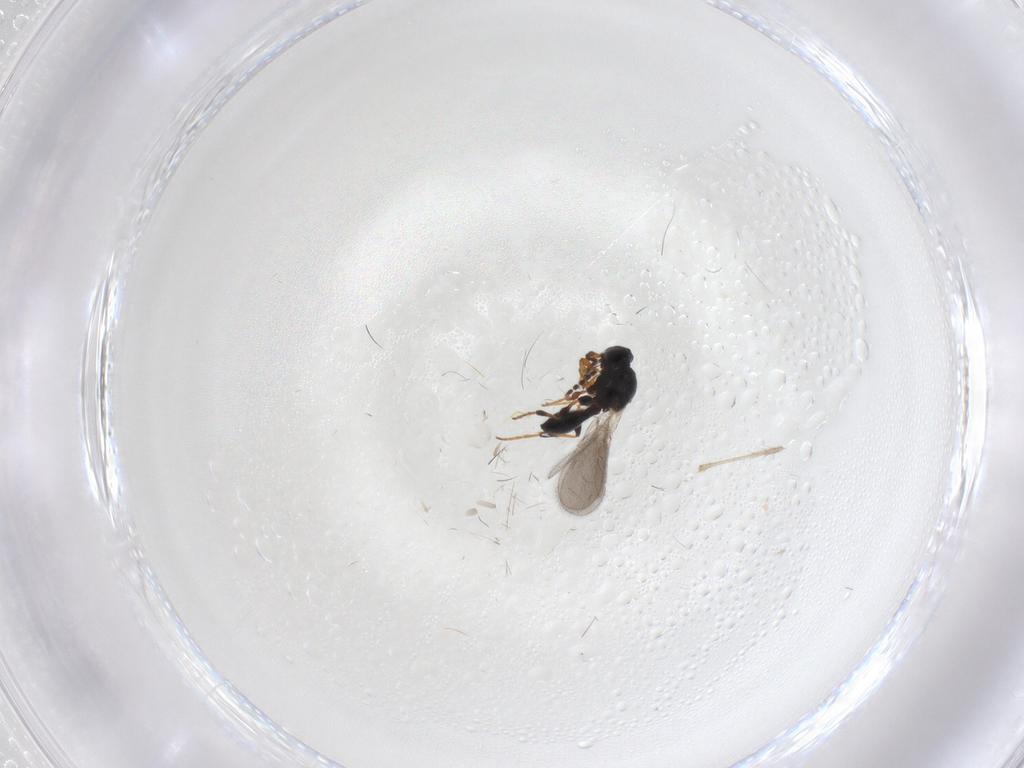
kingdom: Animalia
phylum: Arthropoda
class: Insecta
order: Hymenoptera
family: Platygastridae
